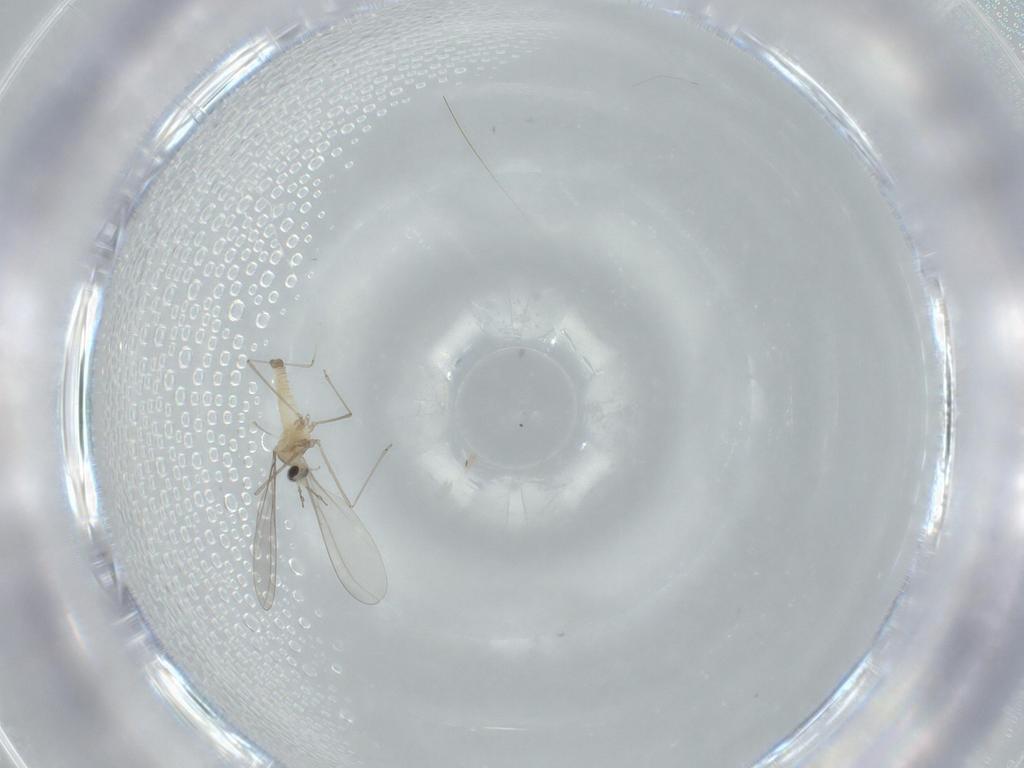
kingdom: Animalia
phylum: Arthropoda
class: Insecta
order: Diptera
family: Cecidomyiidae
